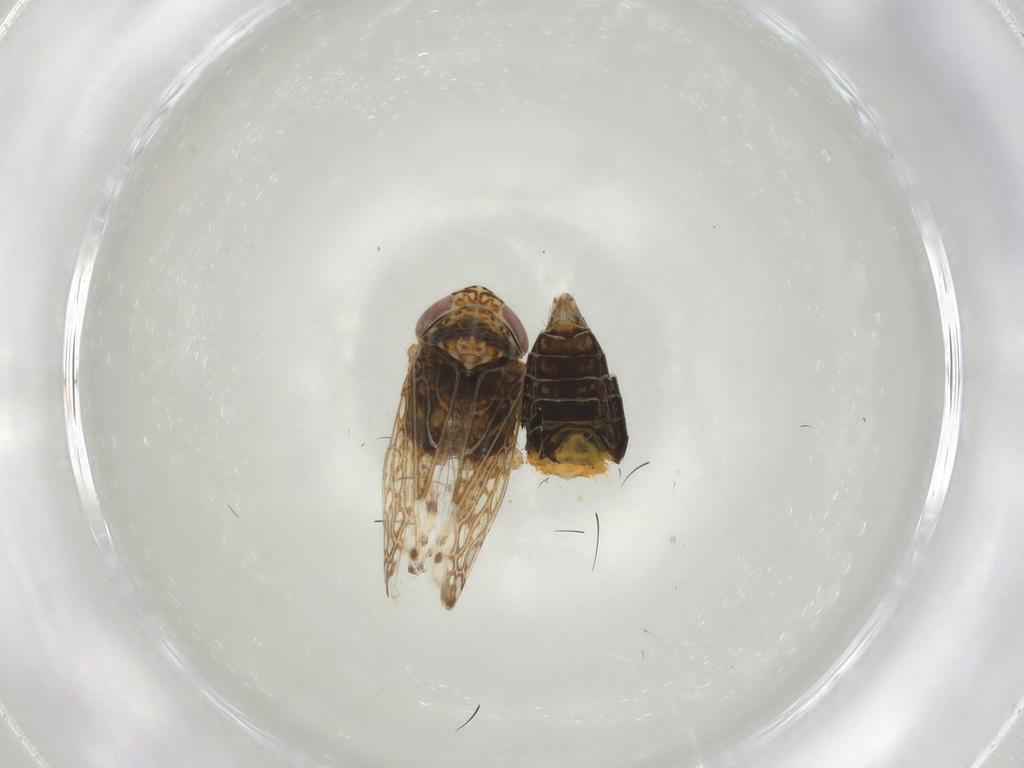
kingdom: Animalia
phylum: Arthropoda
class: Insecta
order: Hemiptera
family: Cicadellidae
